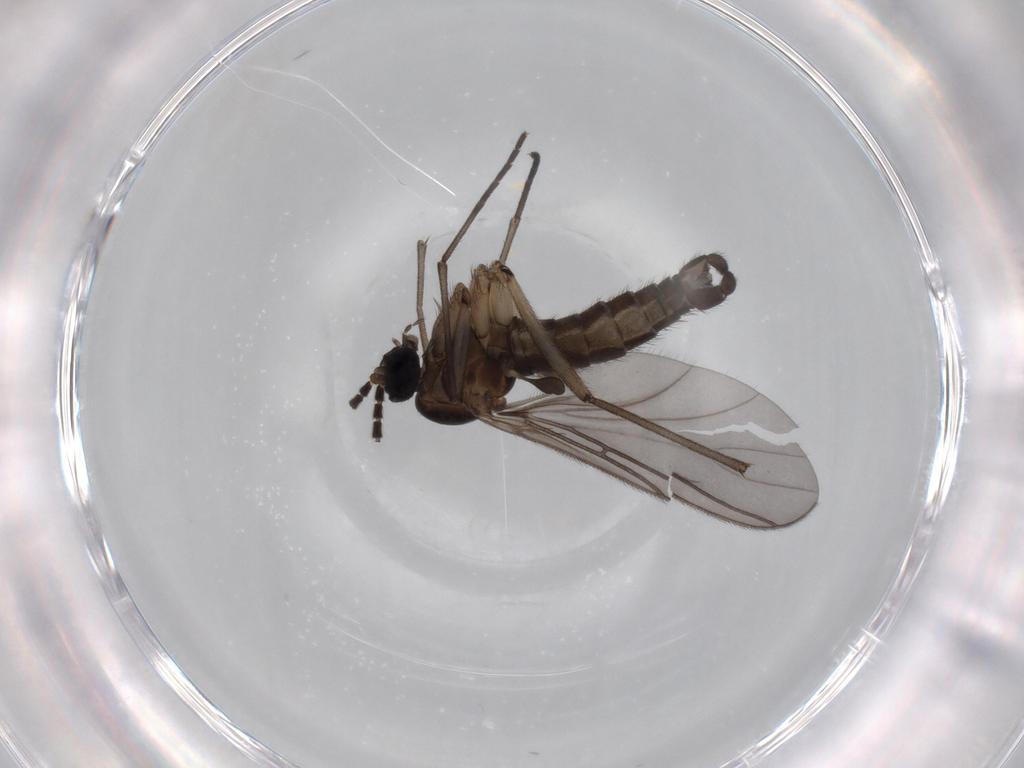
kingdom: Animalia
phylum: Arthropoda
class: Insecta
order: Diptera
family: Sciaridae
